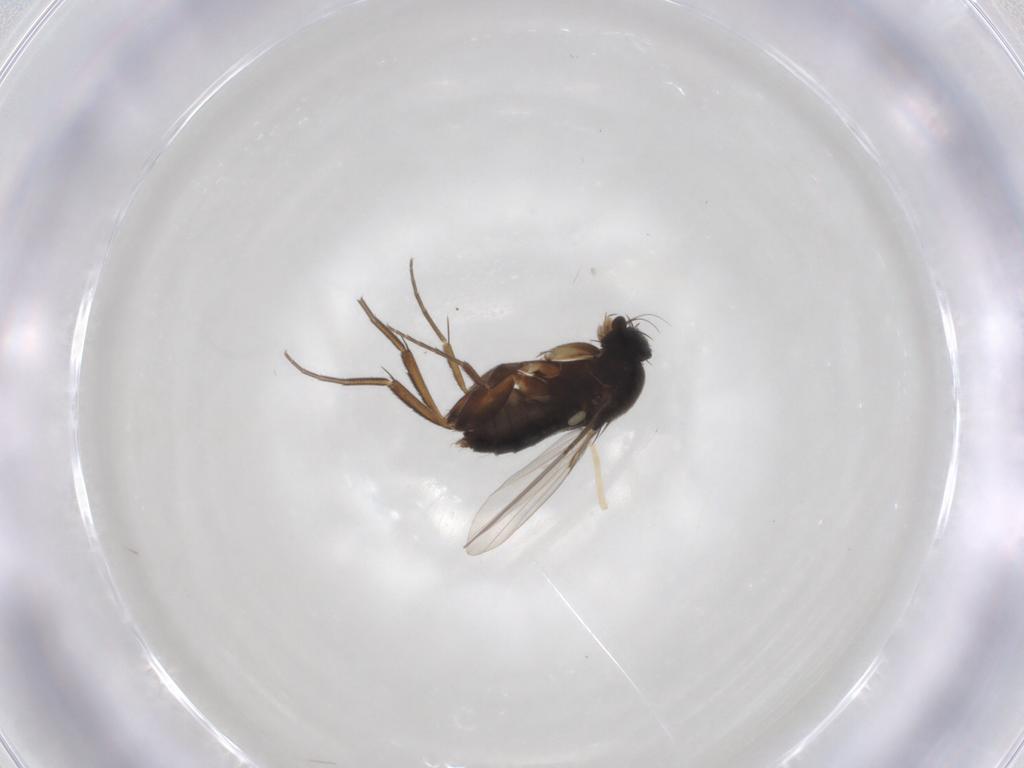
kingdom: Animalia
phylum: Arthropoda
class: Insecta
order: Diptera
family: Phoridae
